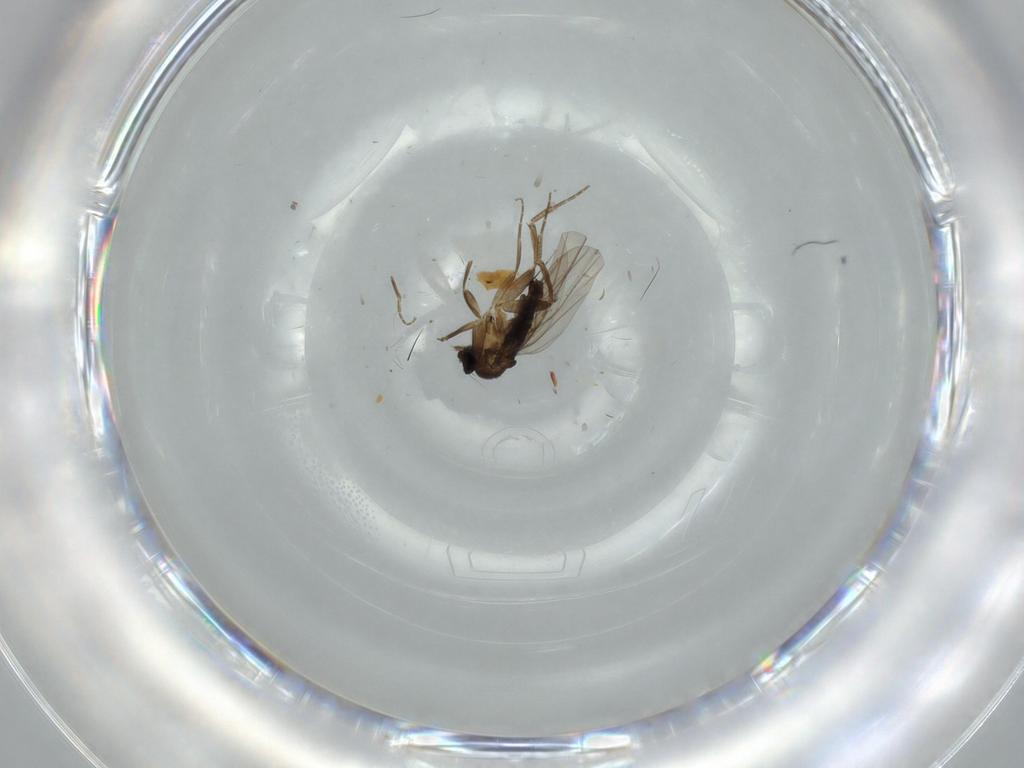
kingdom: Animalia
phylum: Arthropoda
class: Insecta
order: Diptera
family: Phoridae
